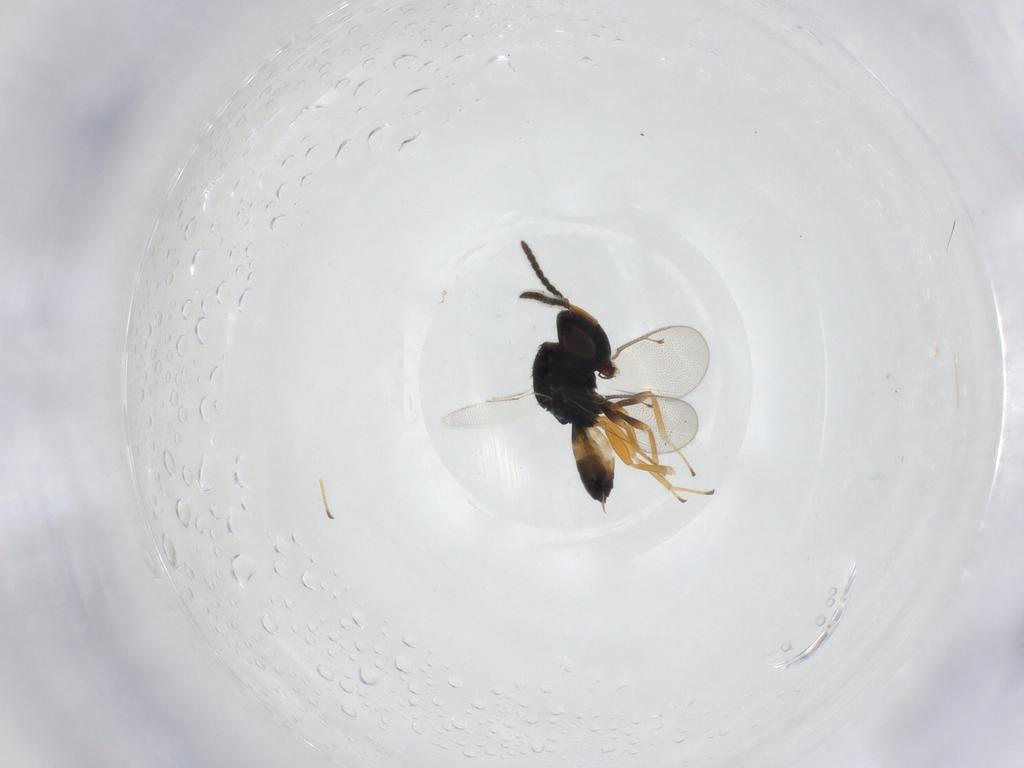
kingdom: Animalia
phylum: Arthropoda
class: Insecta
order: Hymenoptera
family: Pteromalidae
